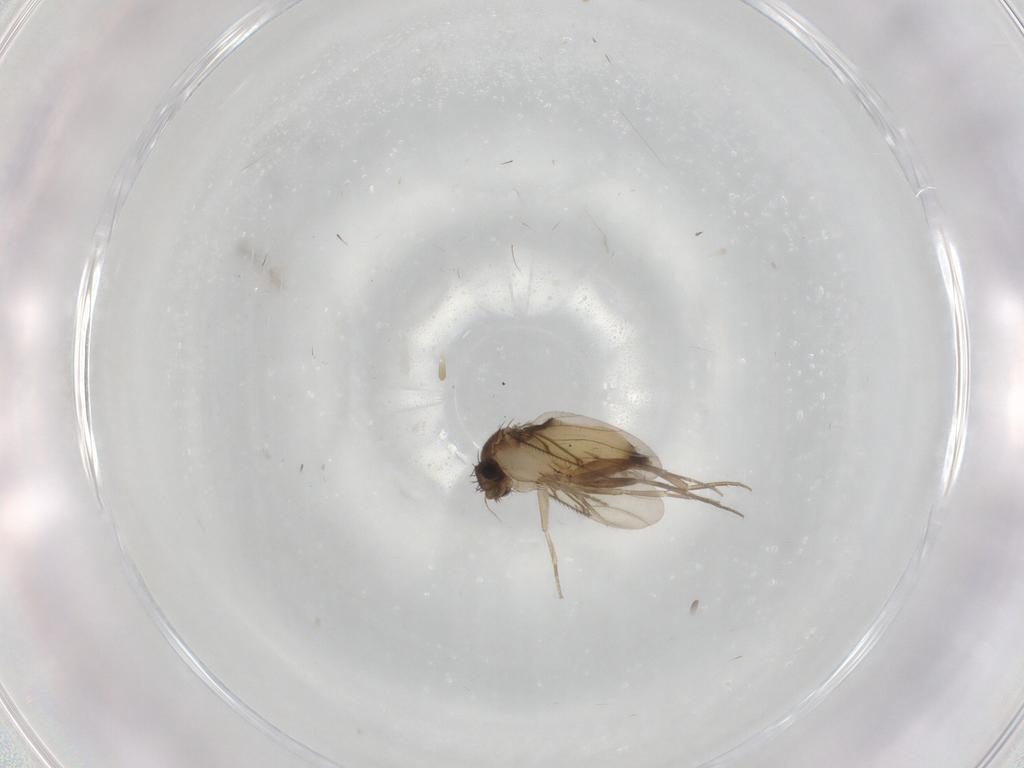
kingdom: Animalia
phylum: Arthropoda
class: Insecta
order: Diptera
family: Phoridae
